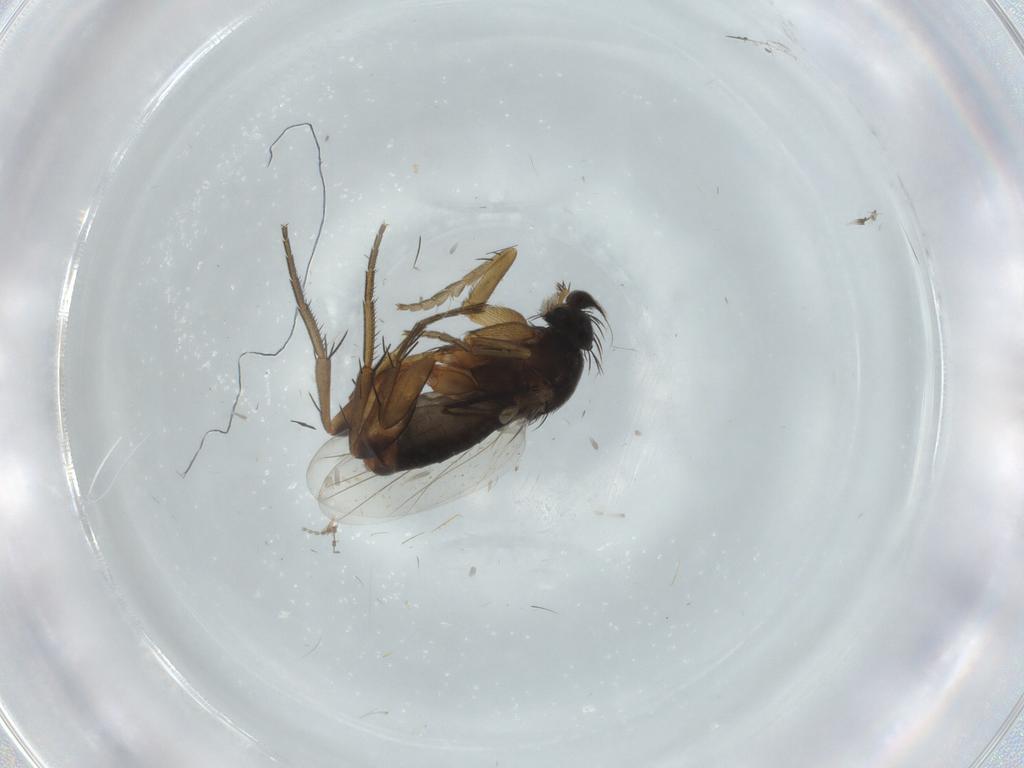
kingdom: Animalia
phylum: Arthropoda
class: Insecta
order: Diptera
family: Phoridae
